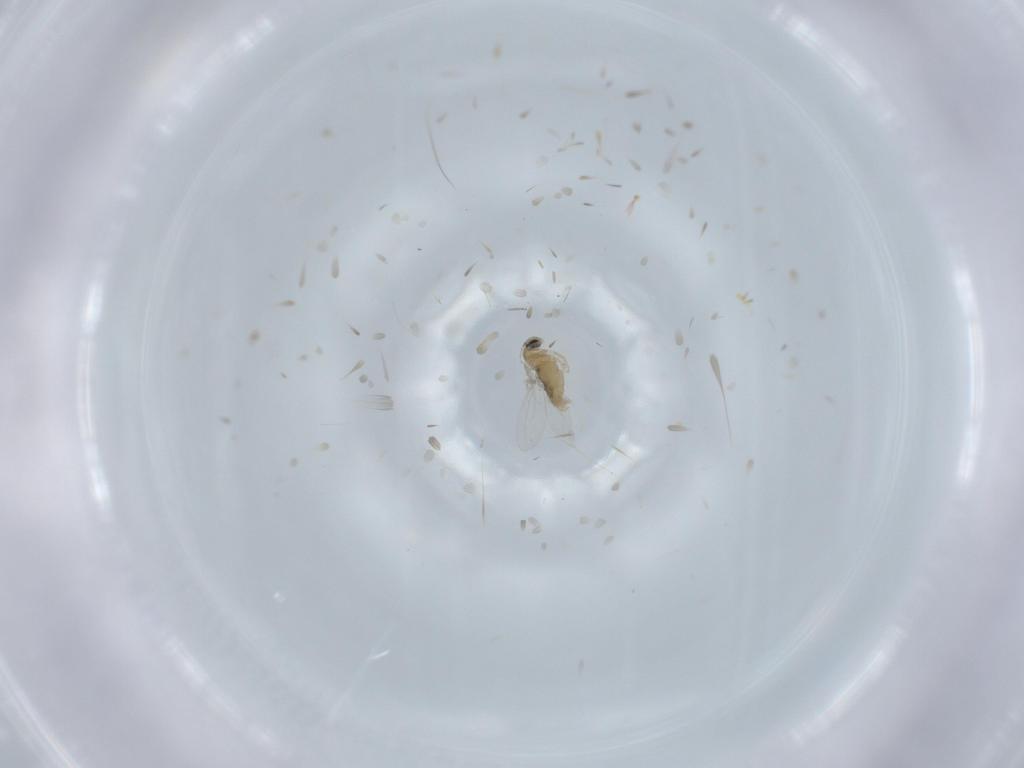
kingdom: Animalia
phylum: Arthropoda
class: Insecta
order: Diptera
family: Cecidomyiidae
